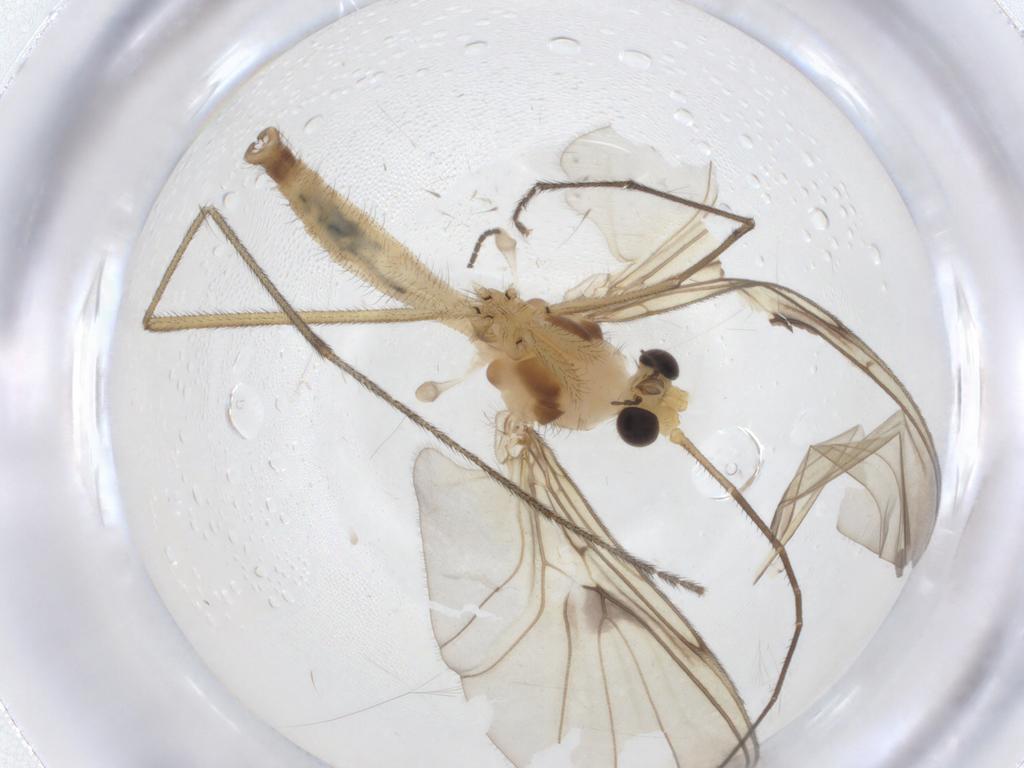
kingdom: Animalia
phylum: Arthropoda
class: Insecta
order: Diptera
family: Keroplatidae
